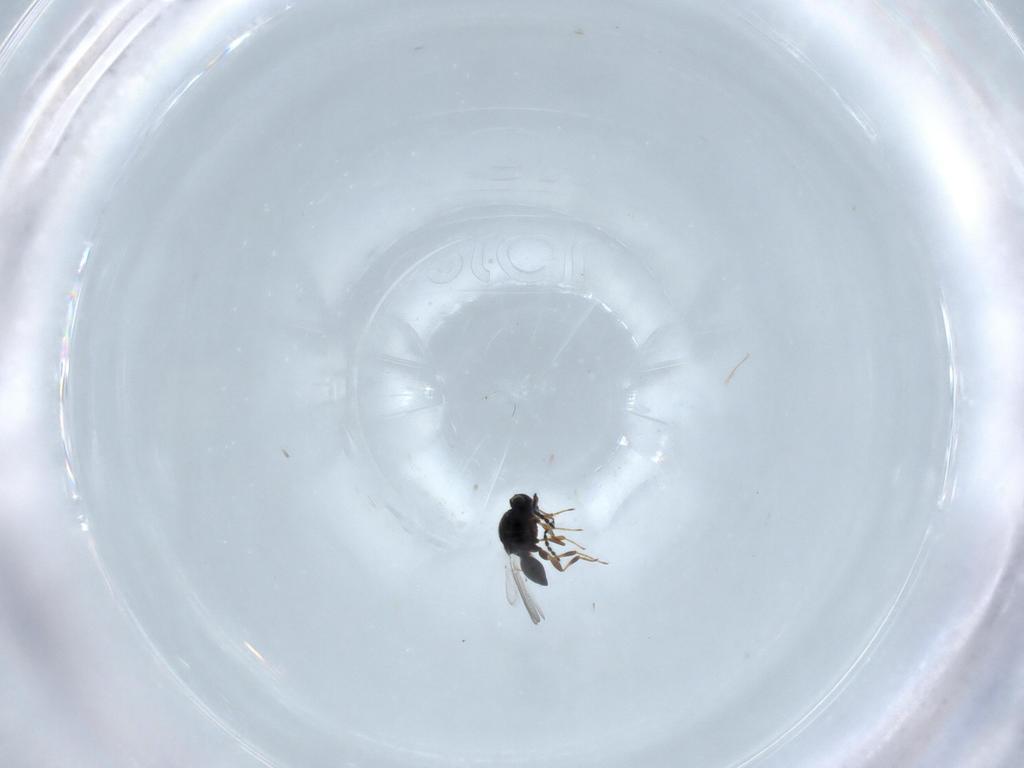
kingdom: Animalia
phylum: Arthropoda
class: Insecta
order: Hymenoptera
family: Platygastridae
